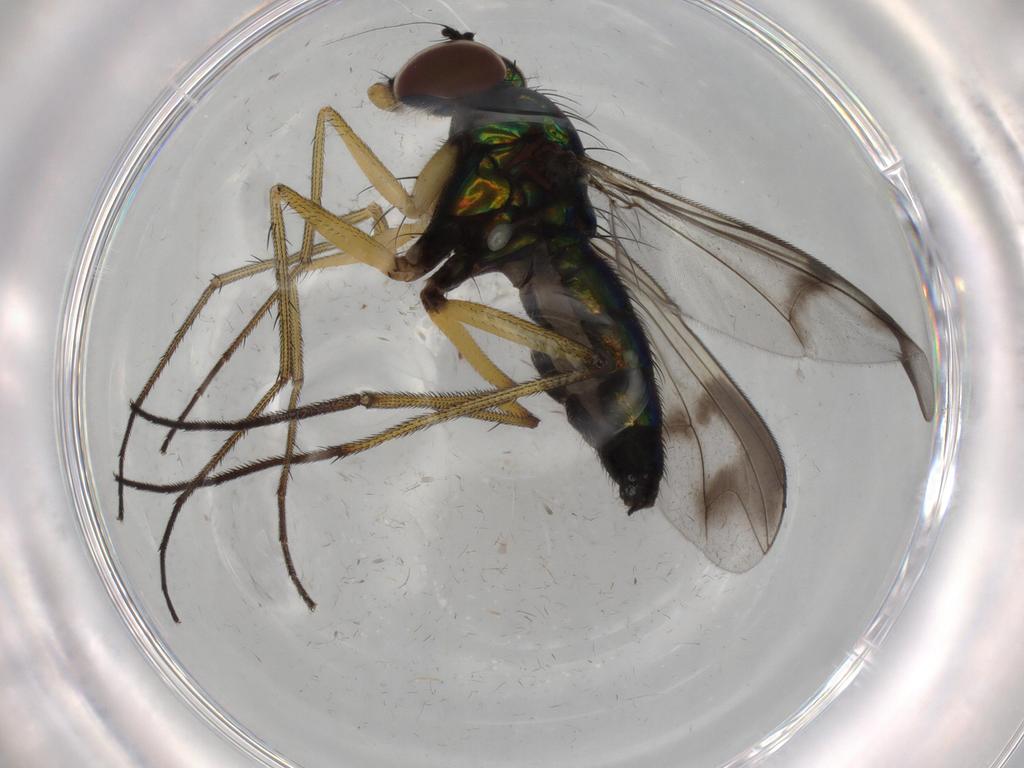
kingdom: Animalia
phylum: Arthropoda
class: Insecta
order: Diptera
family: Dolichopodidae
